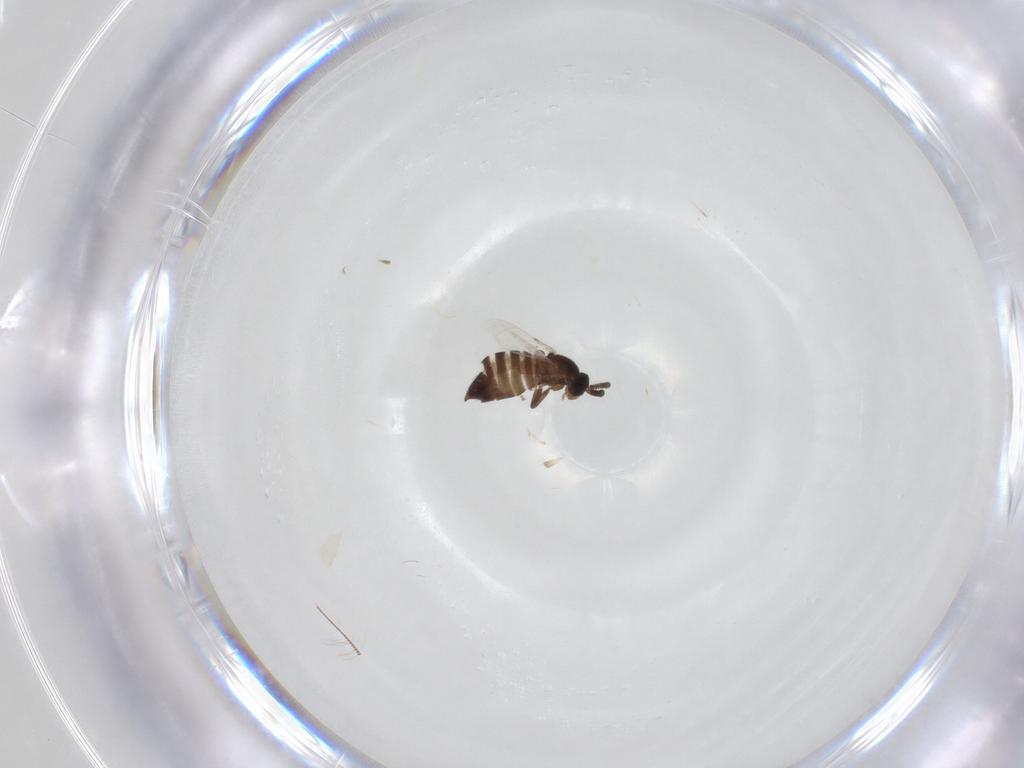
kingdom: Animalia
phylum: Arthropoda
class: Insecta
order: Diptera
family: Scatopsidae
